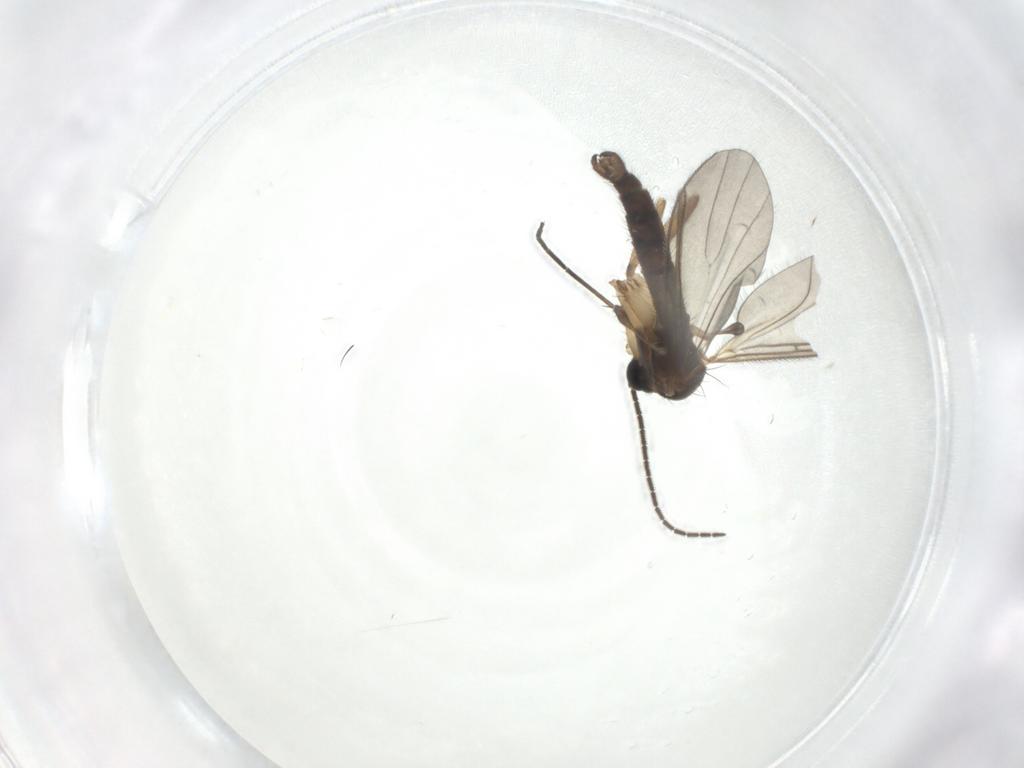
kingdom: Animalia
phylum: Arthropoda
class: Insecta
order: Diptera
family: Sciaridae
